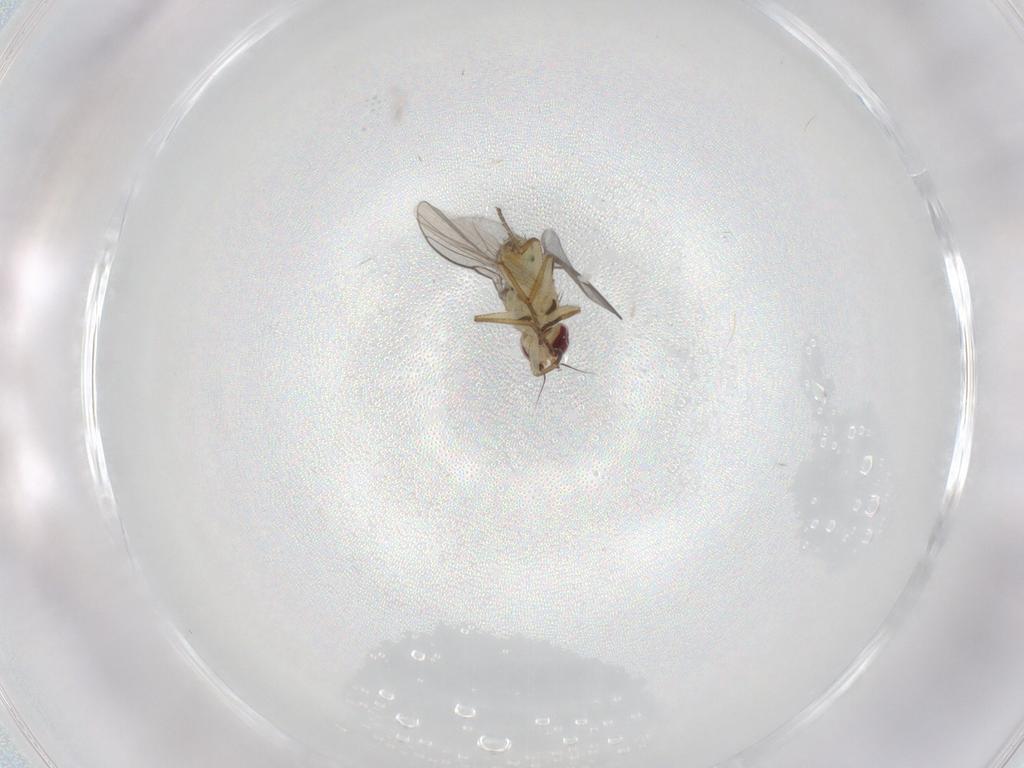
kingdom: Animalia
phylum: Arthropoda
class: Insecta
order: Diptera
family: Agromyzidae
